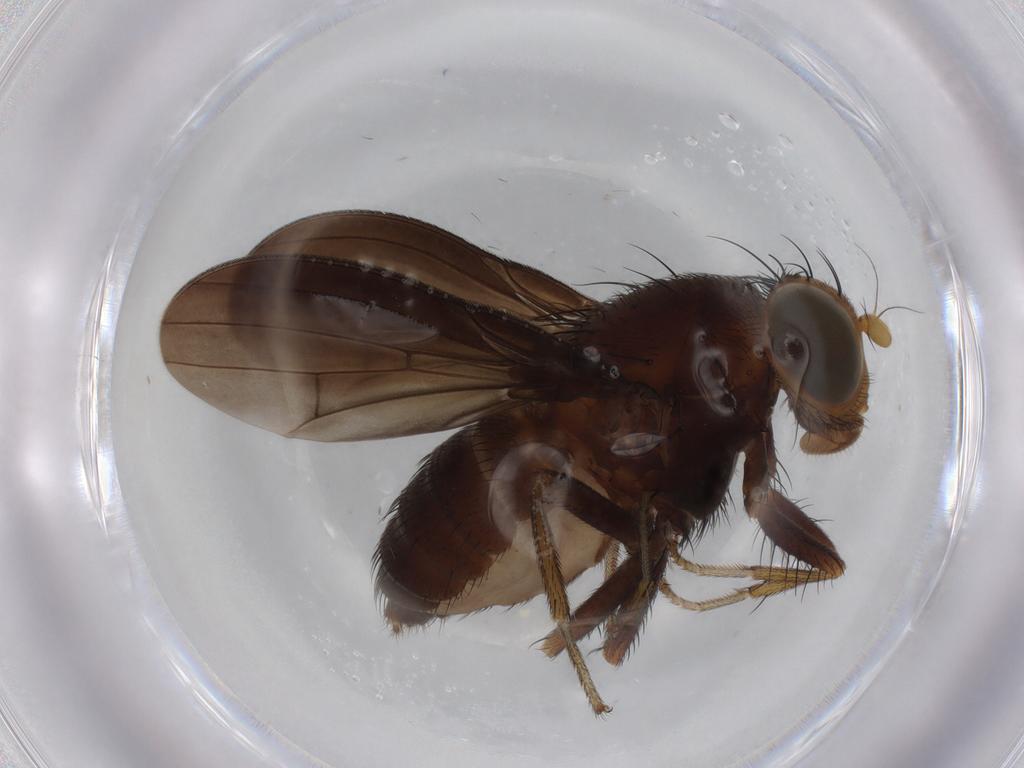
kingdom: Animalia
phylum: Arthropoda
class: Insecta
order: Diptera
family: Chironomidae
